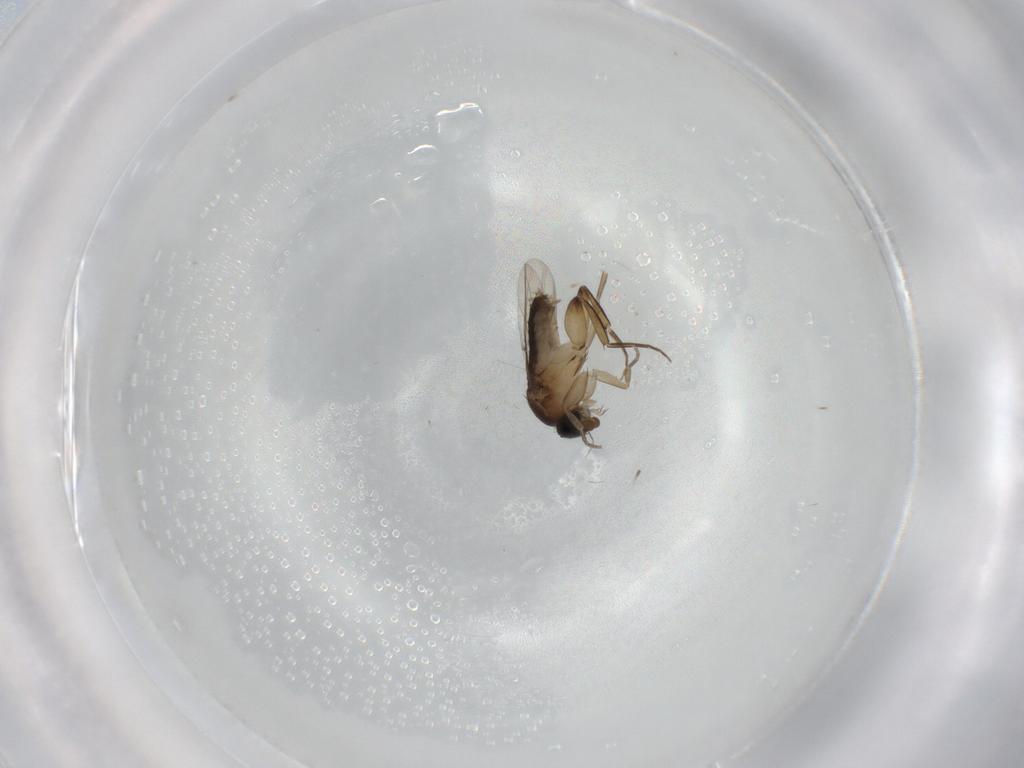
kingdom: Animalia
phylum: Arthropoda
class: Insecta
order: Diptera
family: Phoridae
